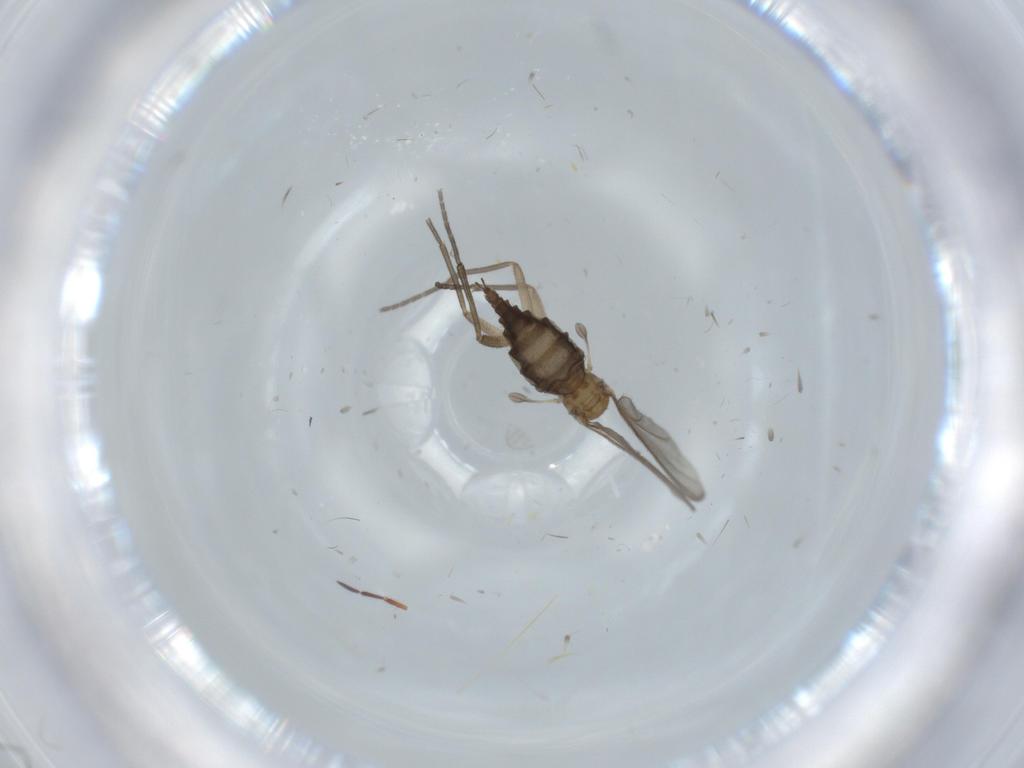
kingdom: Animalia
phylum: Arthropoda
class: Insecta
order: Diptera
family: Sciaridae
